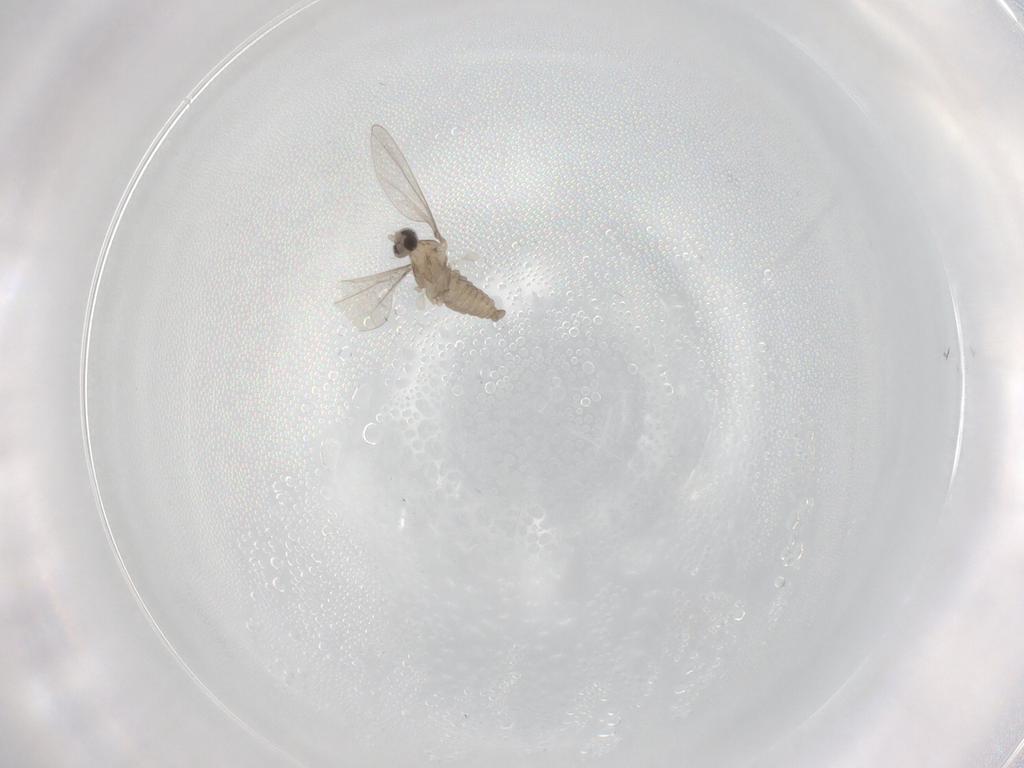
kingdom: Animalia
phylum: Arthropoda
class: Insecta
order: Diptera
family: Cecidomyiidae
